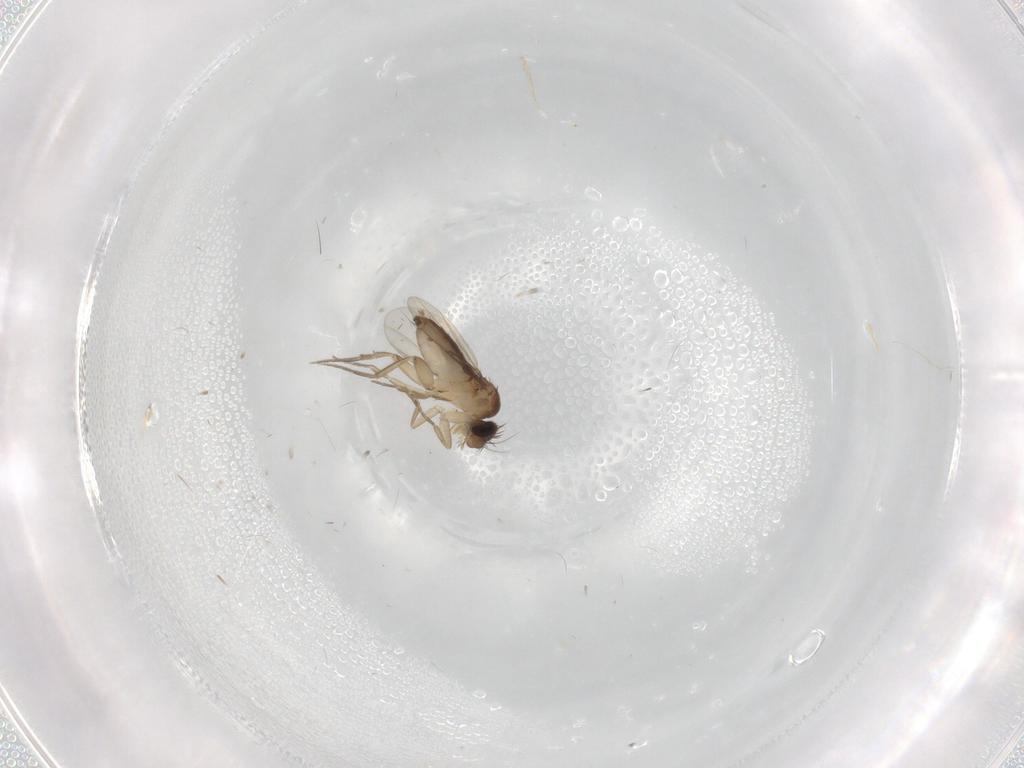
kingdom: Animalia
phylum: Arthropoda
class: Insecta
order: Diptera
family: Phoridae
